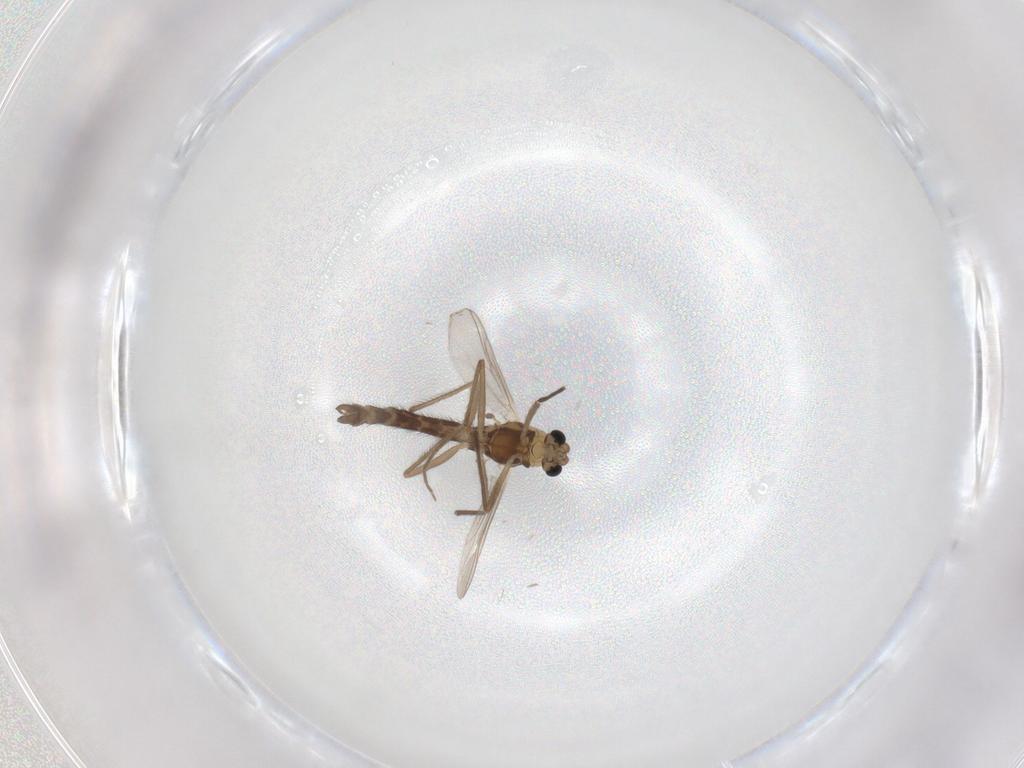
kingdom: Animalia
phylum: Arthropoda
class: Insecta
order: Diptera
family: Chironomidae
